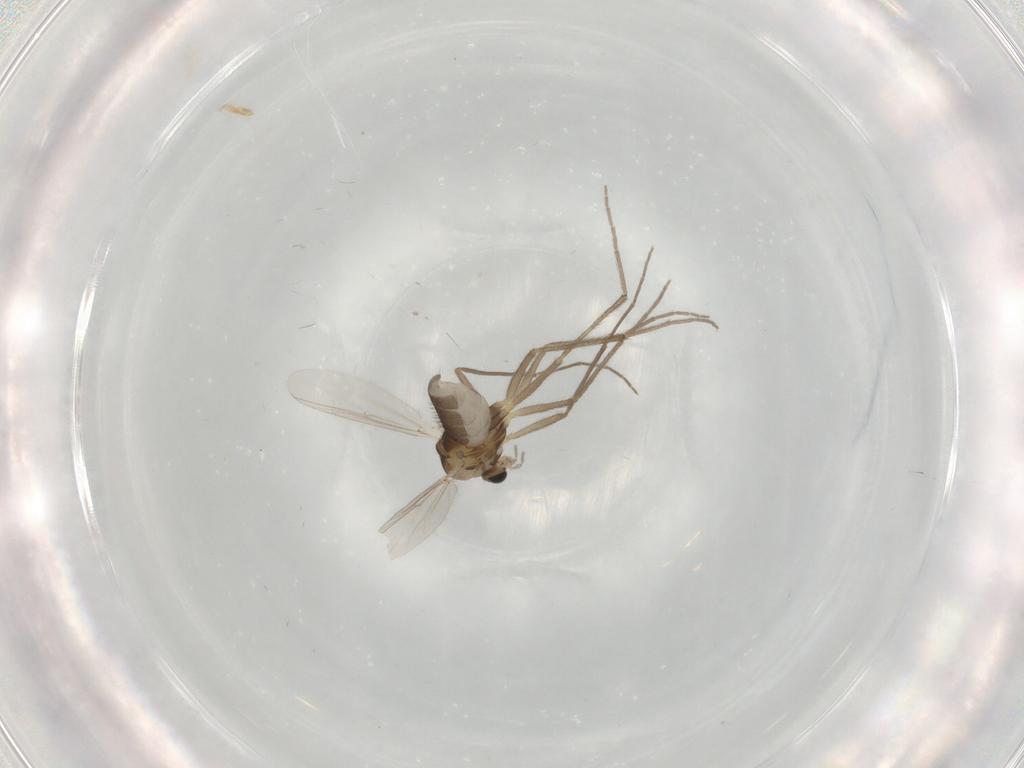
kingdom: Animalia
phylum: Arthropoda
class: Insecta
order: Diptera
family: Chironomidae
